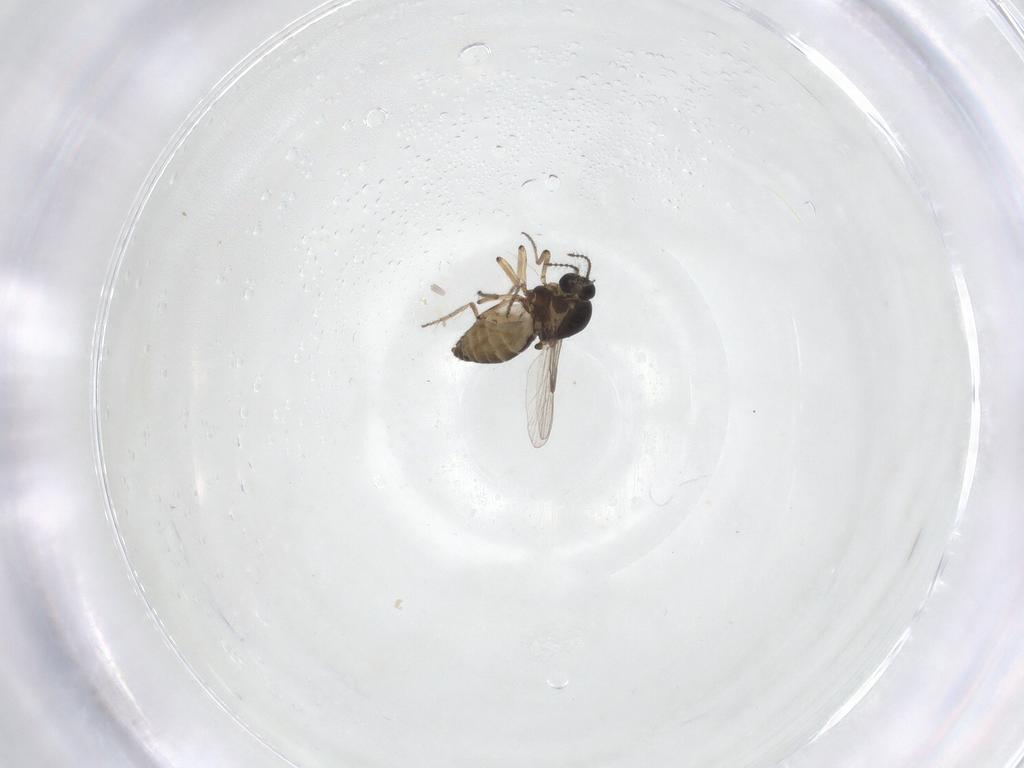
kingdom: Animalia
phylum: Arthropoda
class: Insecta
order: Diptera
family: Ceratopogonidae
